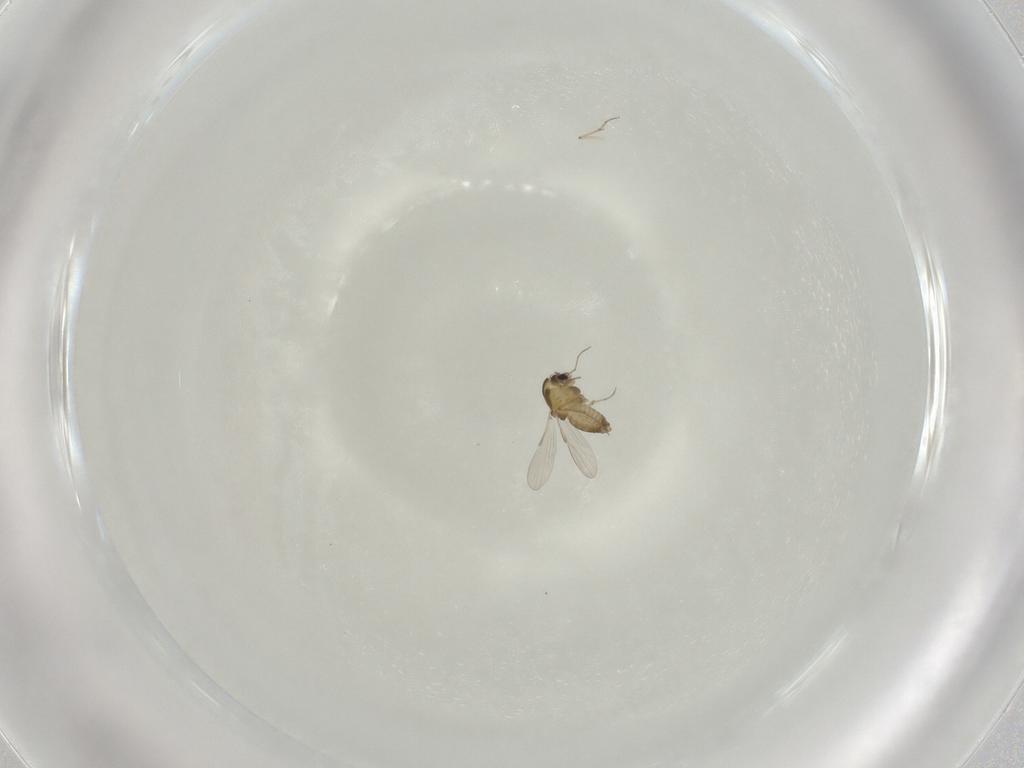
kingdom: Animalia
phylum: Arthropoda
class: Insecta
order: Diptera
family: Chironomidae
